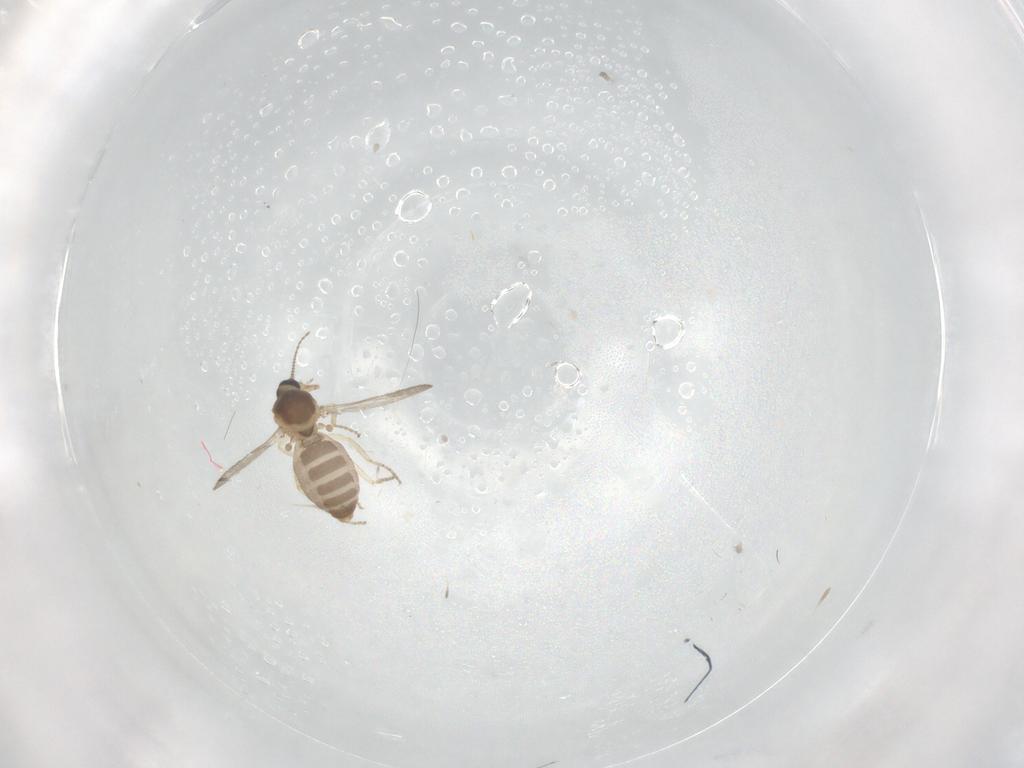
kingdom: Animalia
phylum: Arthropoda
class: Insecta
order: Diptera
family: Ceratopogonidae
